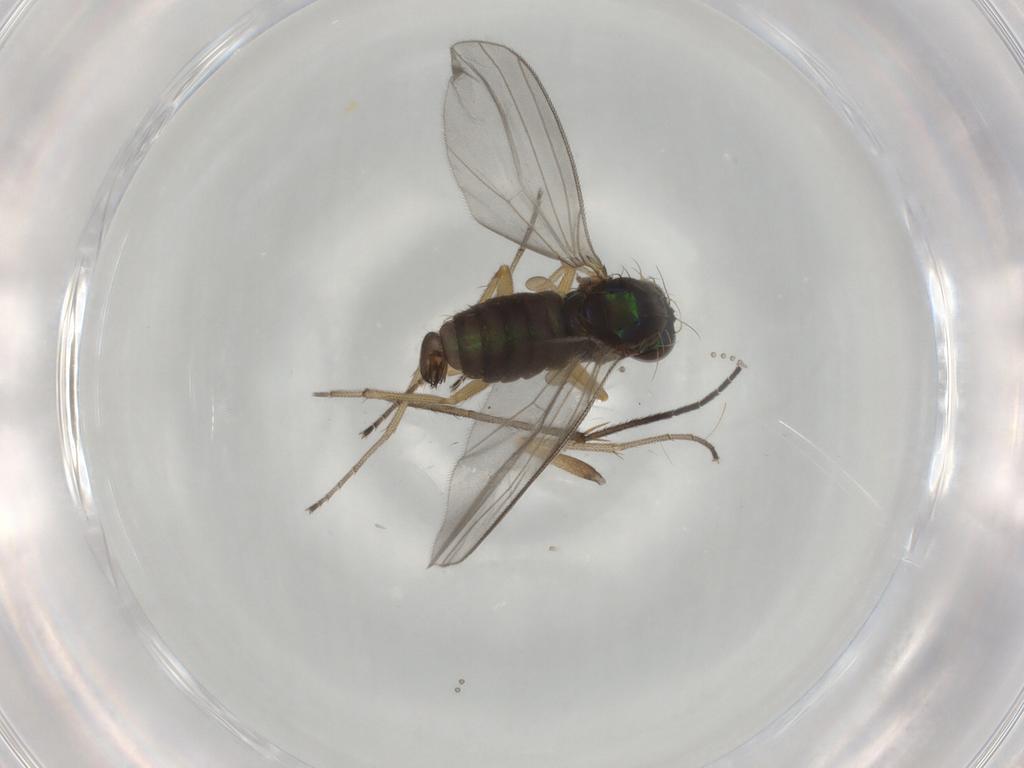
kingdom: Animalia
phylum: Arthropoda
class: Insecta
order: Diptera
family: Dolichopodidae
